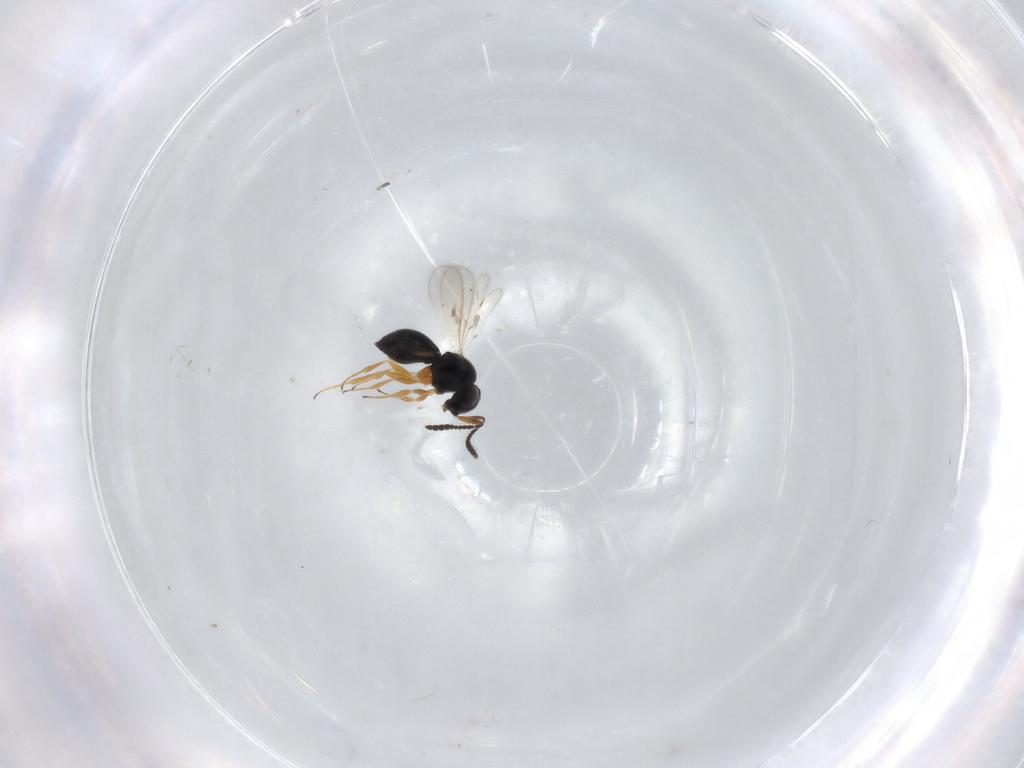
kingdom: Animalia
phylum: Arthropoda
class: Insecta
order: Hymenoptera
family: Scelionidae
